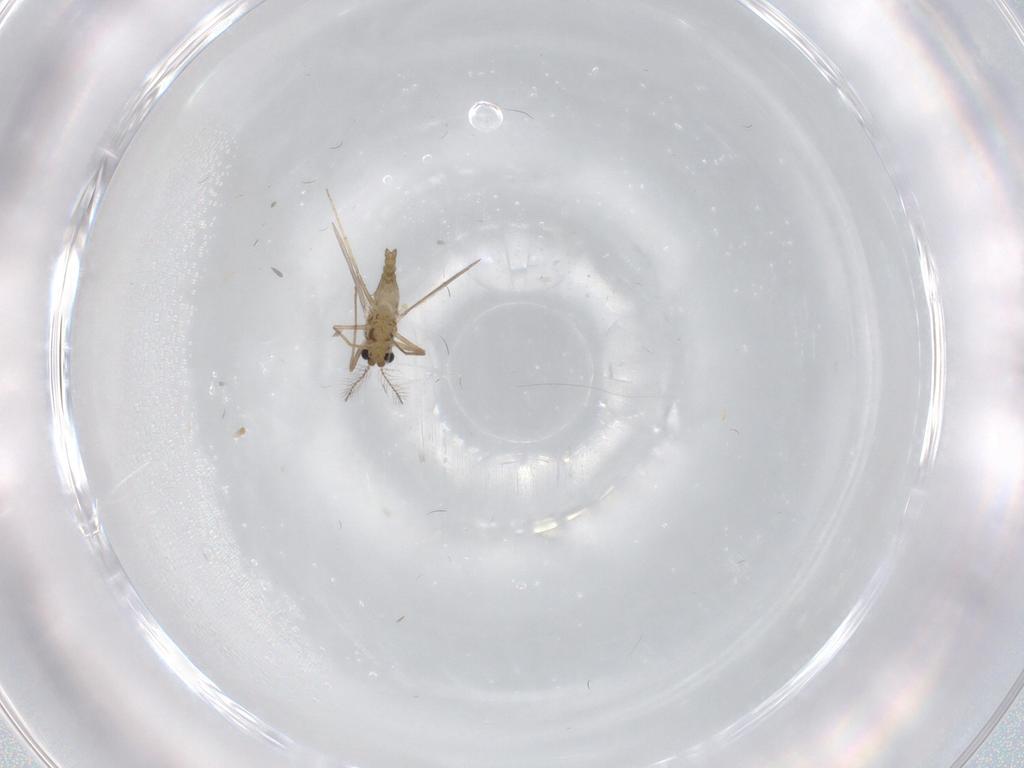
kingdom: Animalia
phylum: Arthropoda
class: Insecta
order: Diptera
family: Chironomidae
